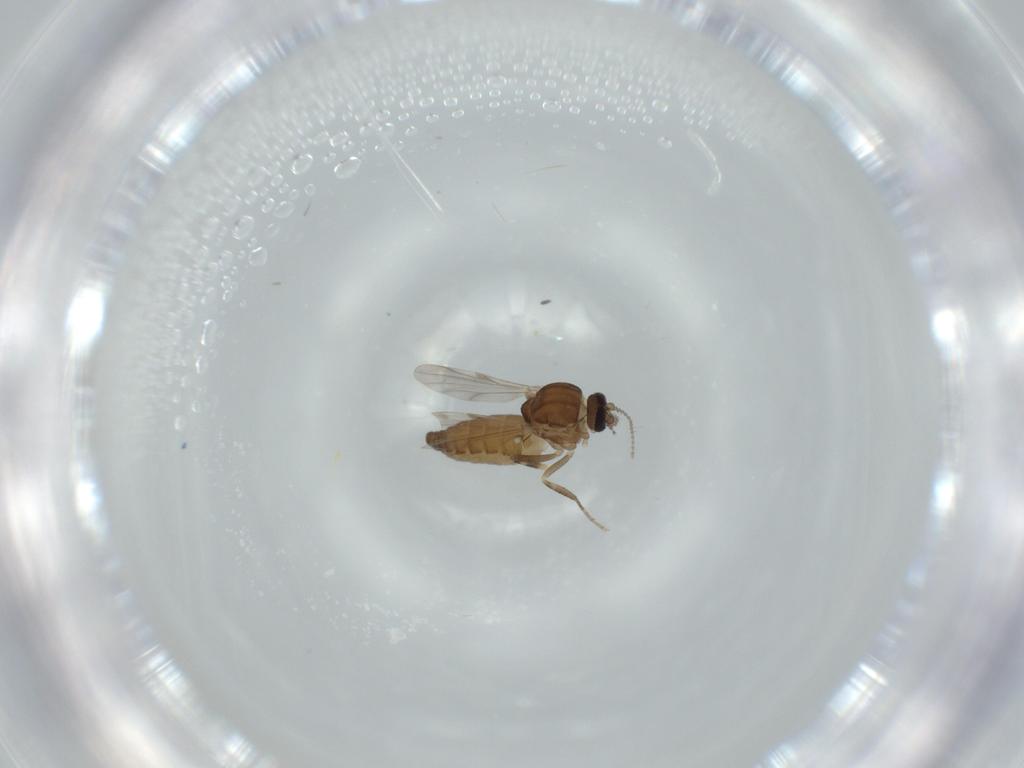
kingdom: Animalia
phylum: Arthropoda
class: Insecta
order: Diptera
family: Ceratopogonidae
